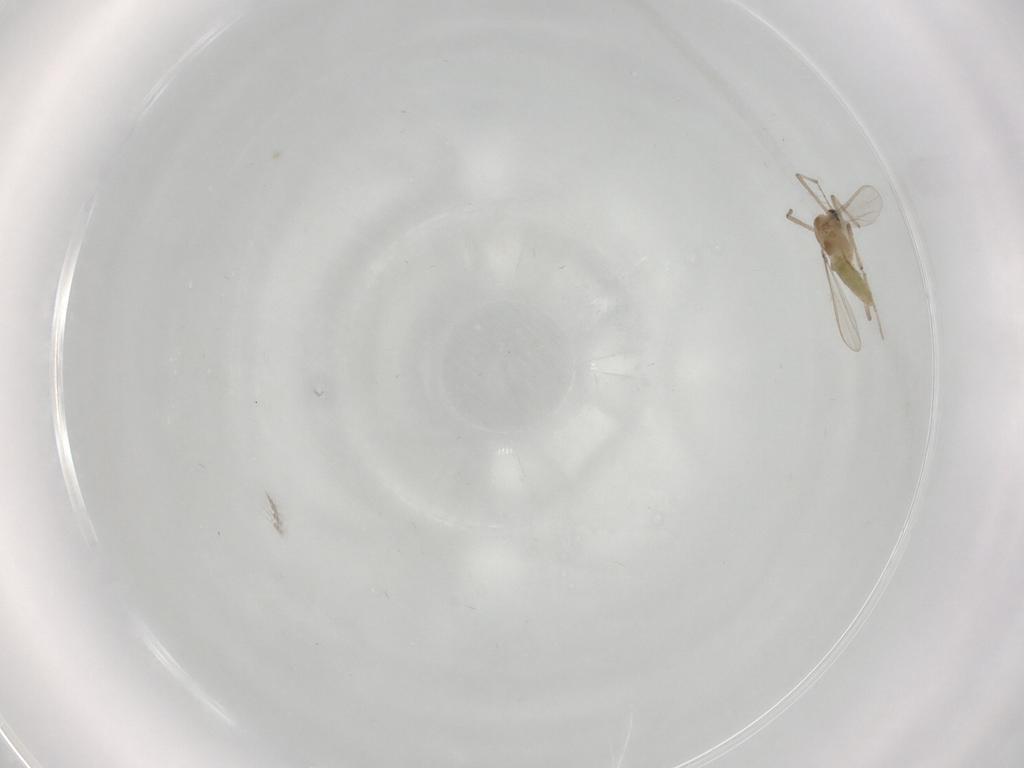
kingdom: Animalia
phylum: Arthropoda
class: Insecta
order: Diptera
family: Chironomidae
